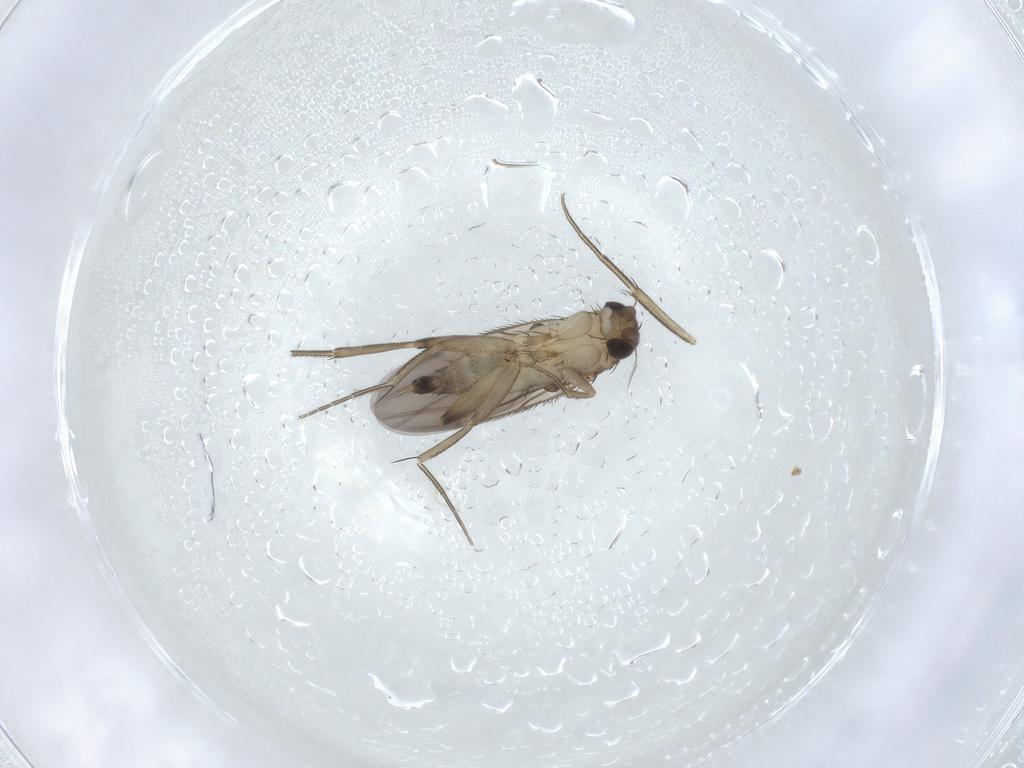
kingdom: Animalia
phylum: Arthropoda
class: Insecta
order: Diptera
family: Phoridae
